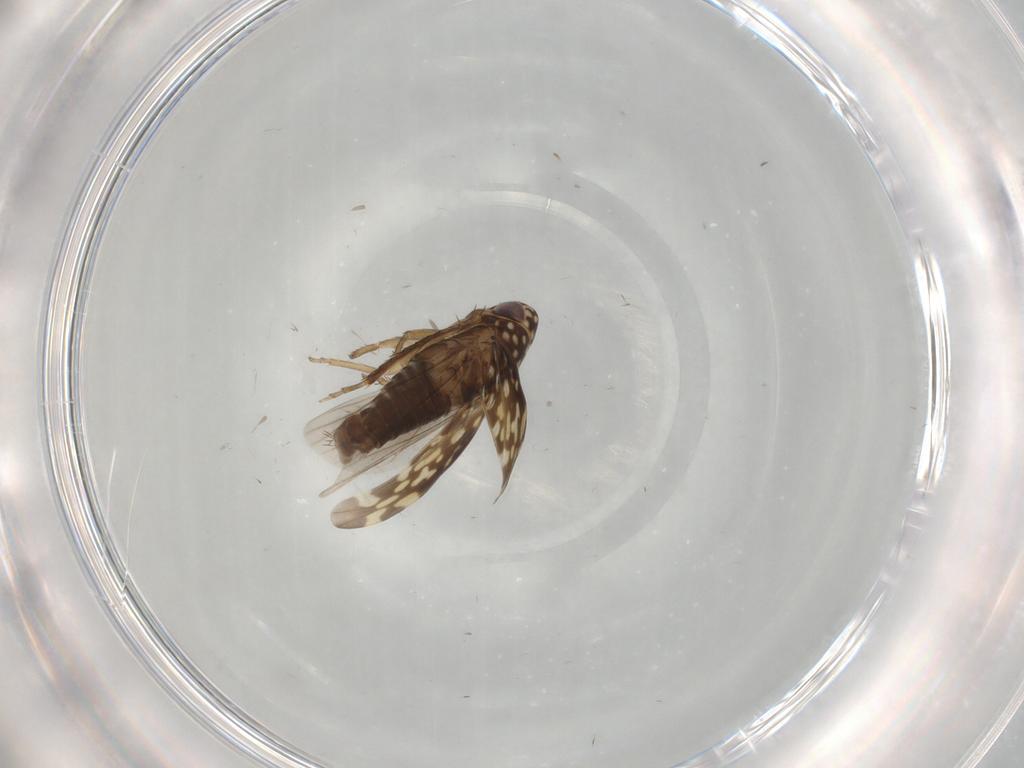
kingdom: Animalia
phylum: Arthropoda
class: Insecta
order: Hemiptera
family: Cicadellidae
